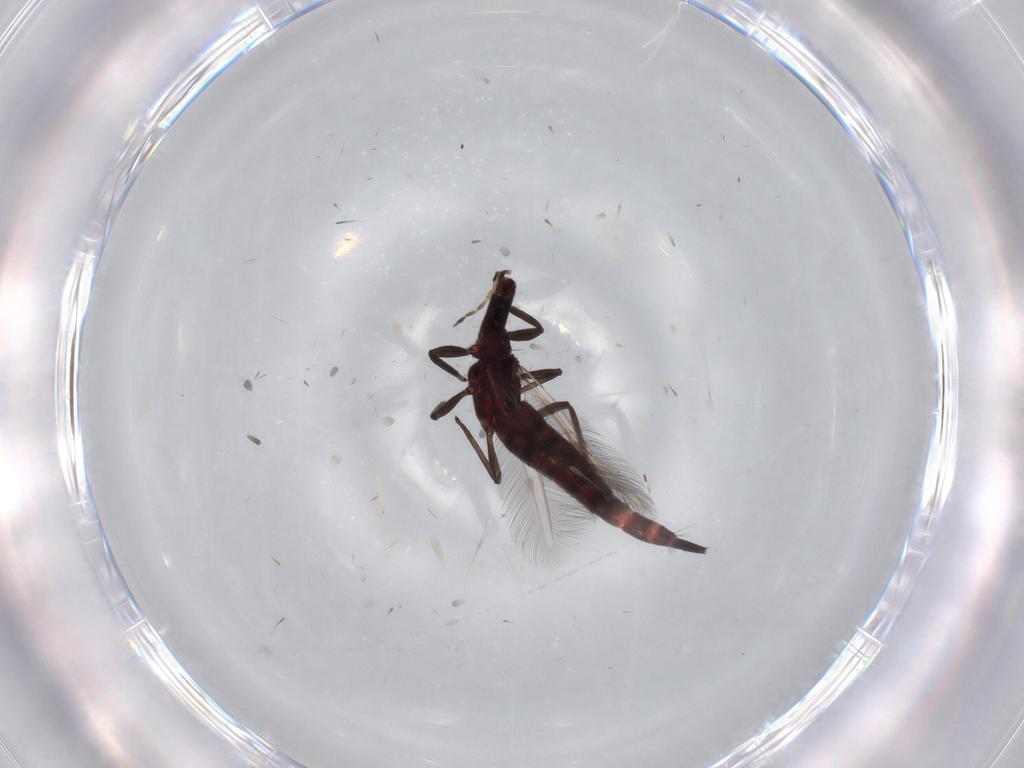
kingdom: Animalia
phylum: Arthropoda
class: Insecta
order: Thysanoptera
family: Phlaeothripidae
